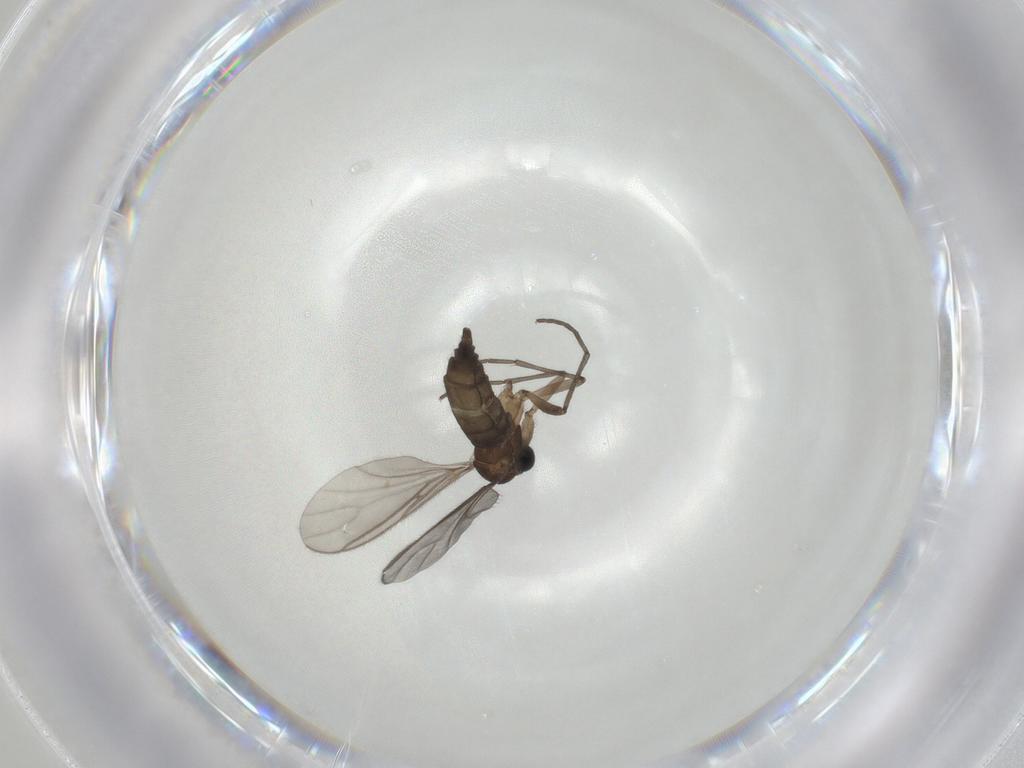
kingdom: Animalia
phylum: Arthropoda
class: Insecta
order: Diptera
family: Sciaridae
